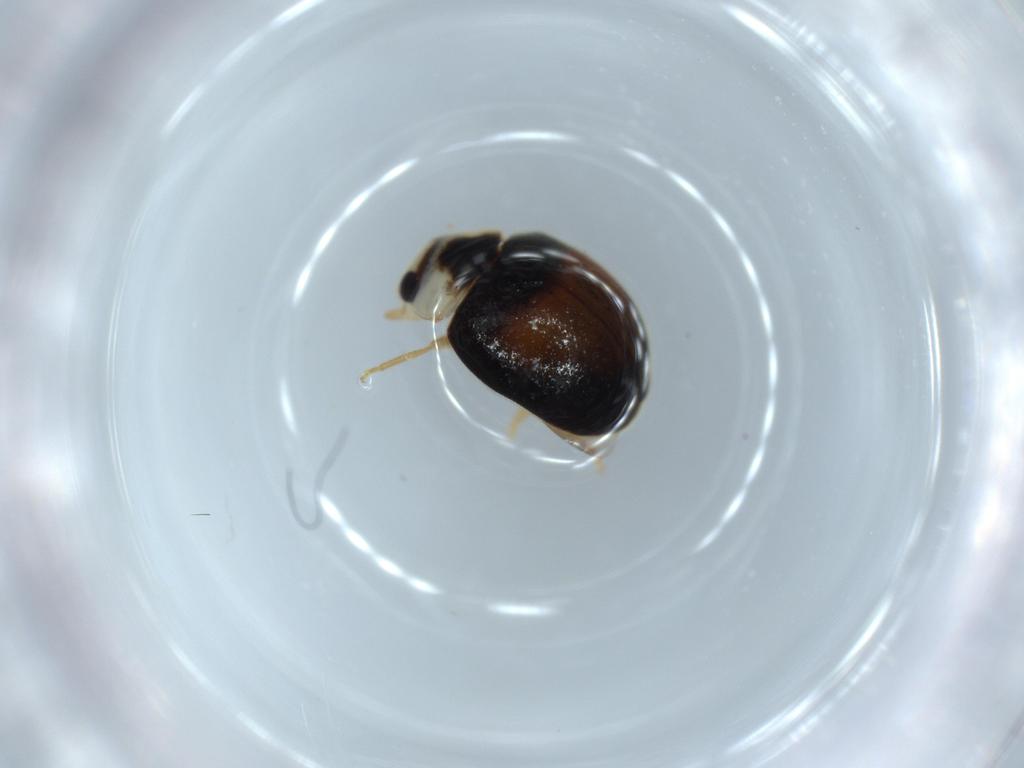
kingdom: Animalia
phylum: Arthropoda
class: Insecta
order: Coleoptera
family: Coccinellidae
